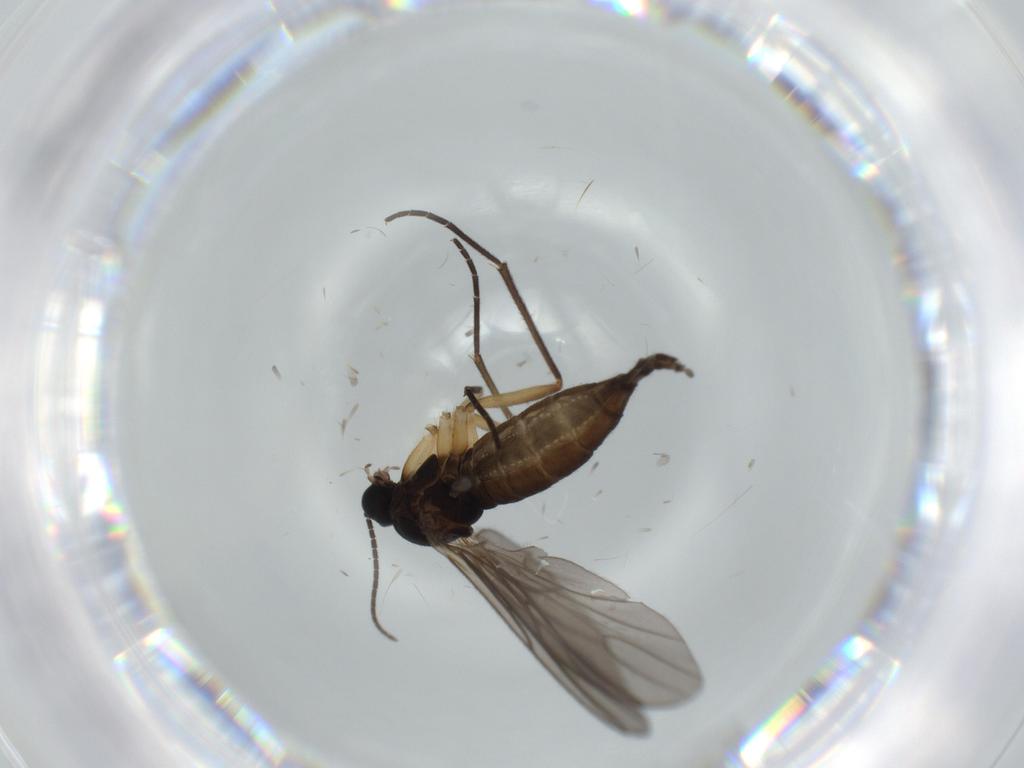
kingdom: Animalia
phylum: Arthropoda
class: Insecta
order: Diptera
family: Sciaridae
